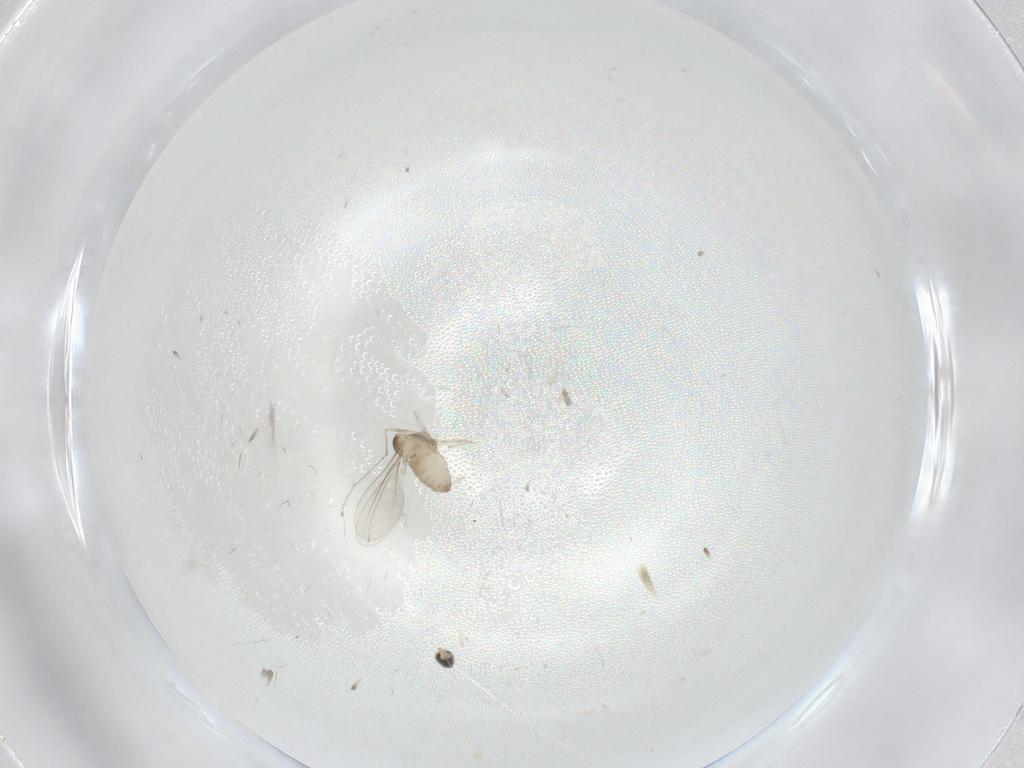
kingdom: Animalia
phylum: Arthropoda
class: Insecta
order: Diptera
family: Cecidomyiidae
